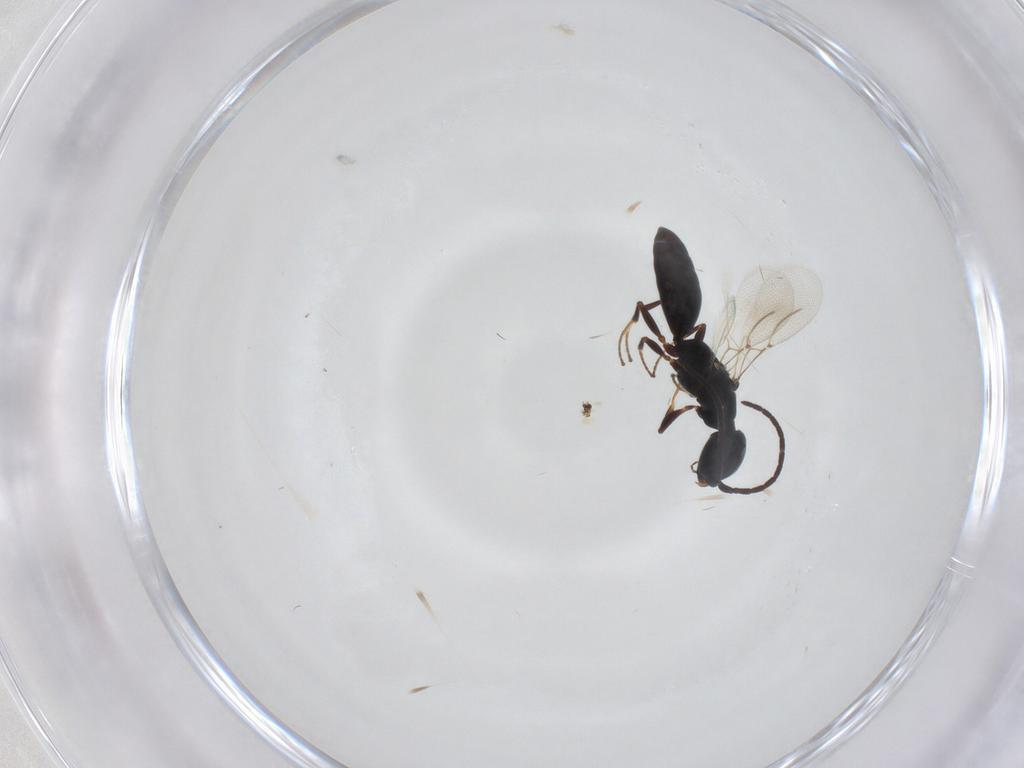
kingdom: Animalia
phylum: Arthropoda
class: Insecta
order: Hymenoptera
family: Bethylidae
